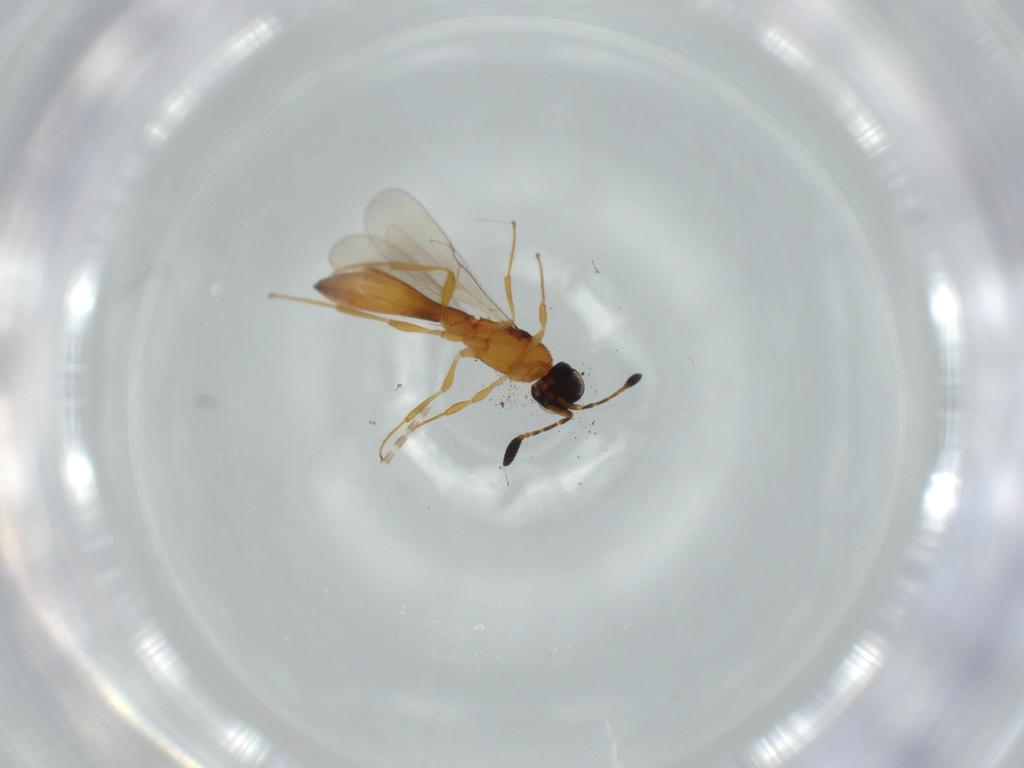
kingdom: Animalia
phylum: Arthropoda
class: Insecta
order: Hymenoptera
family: Scelionidae
